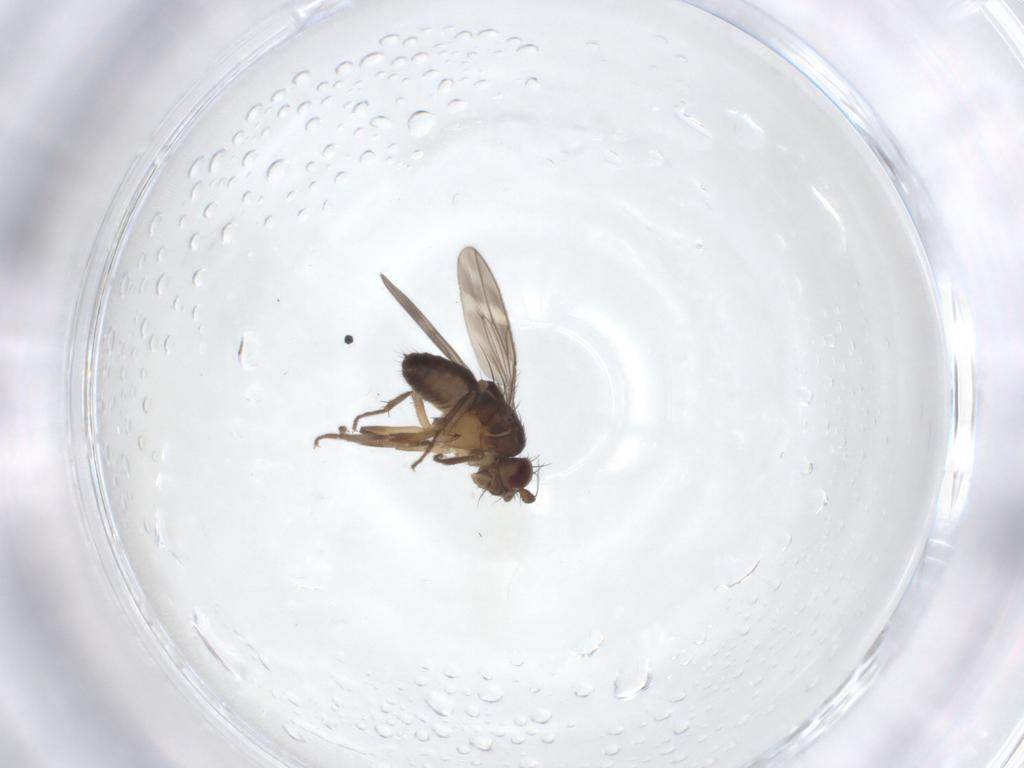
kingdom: Animalia
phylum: Arthropoda
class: Insecta
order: Diptera
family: Sphaeroceridae
